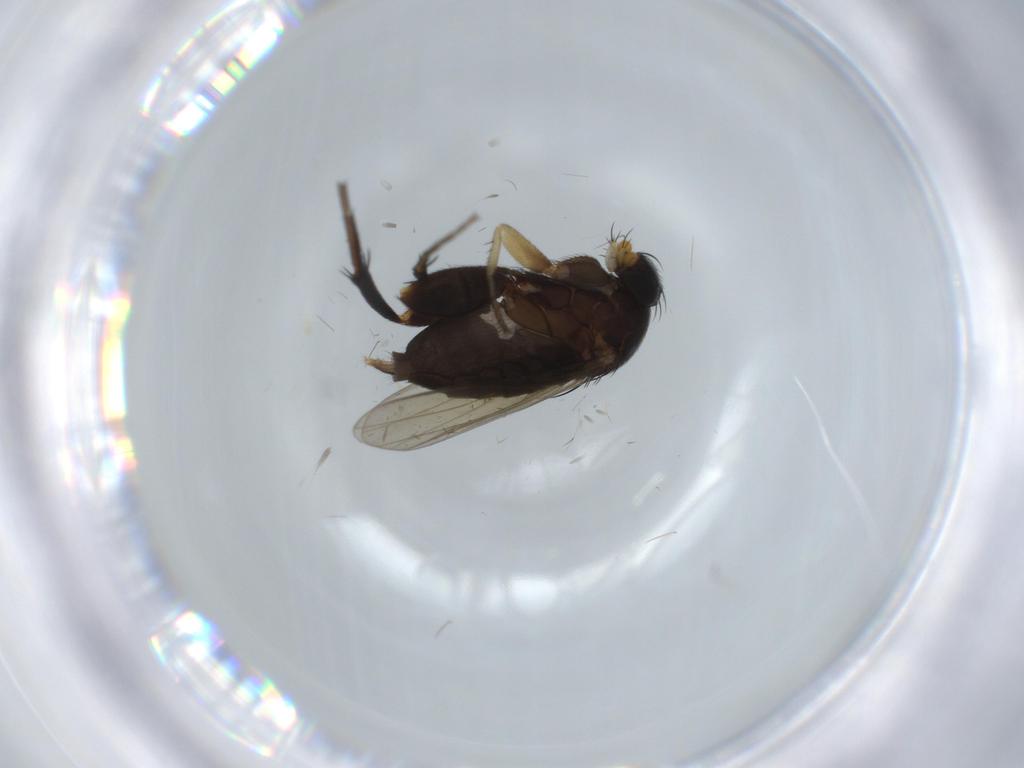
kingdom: Animalia
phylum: Arthropoda
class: Insecta
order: Diptera
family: Phoridae
